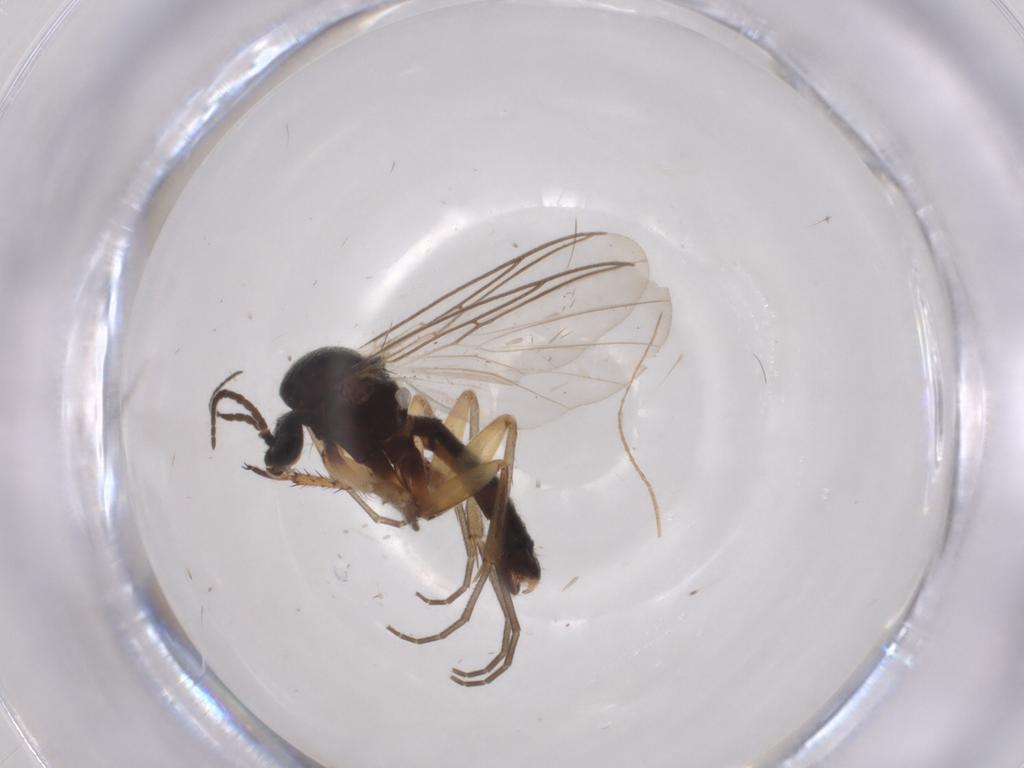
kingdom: Animalia
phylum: Arthropoda
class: Insecta
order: Diptera
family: Mycetophilidae
